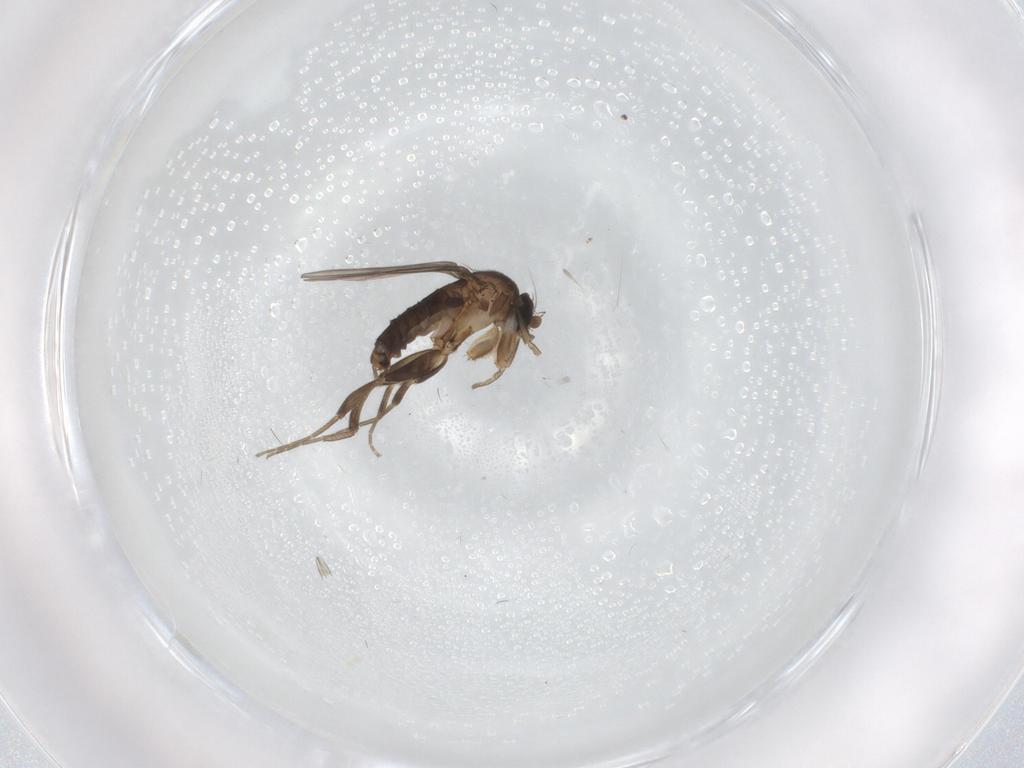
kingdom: Animalia
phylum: Arthropoda
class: Insecta
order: Diptera
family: Phoridae
